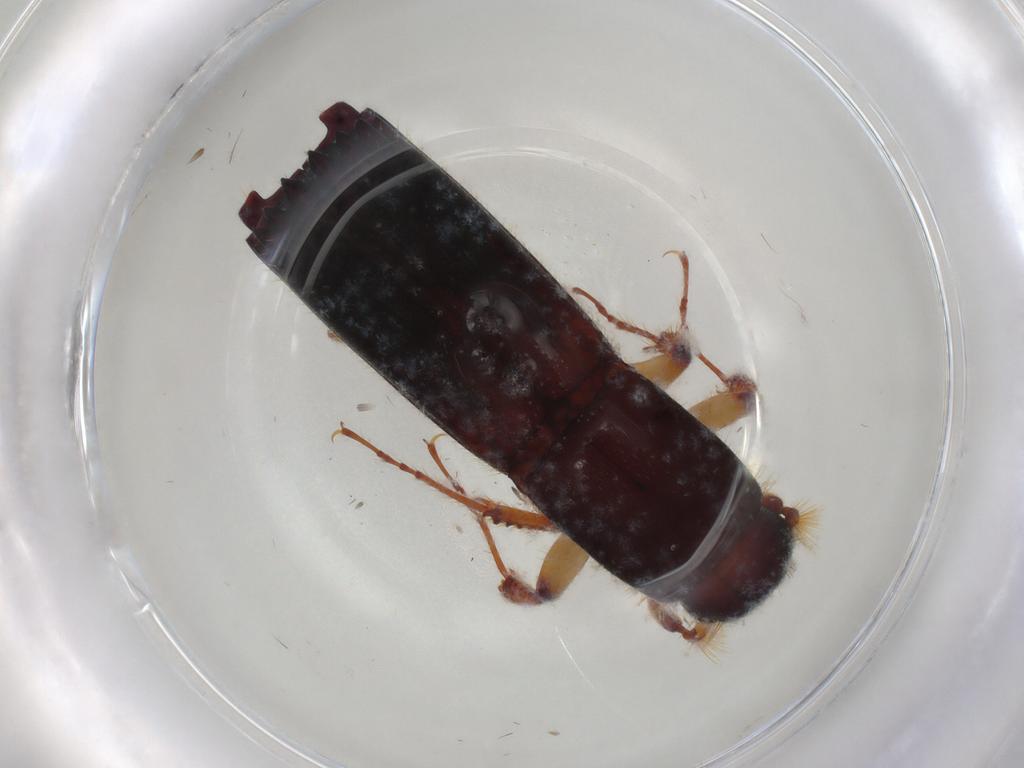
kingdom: Animalia
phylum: Arthropoda
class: Insecta
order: Coleoptera
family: Curculionidae
